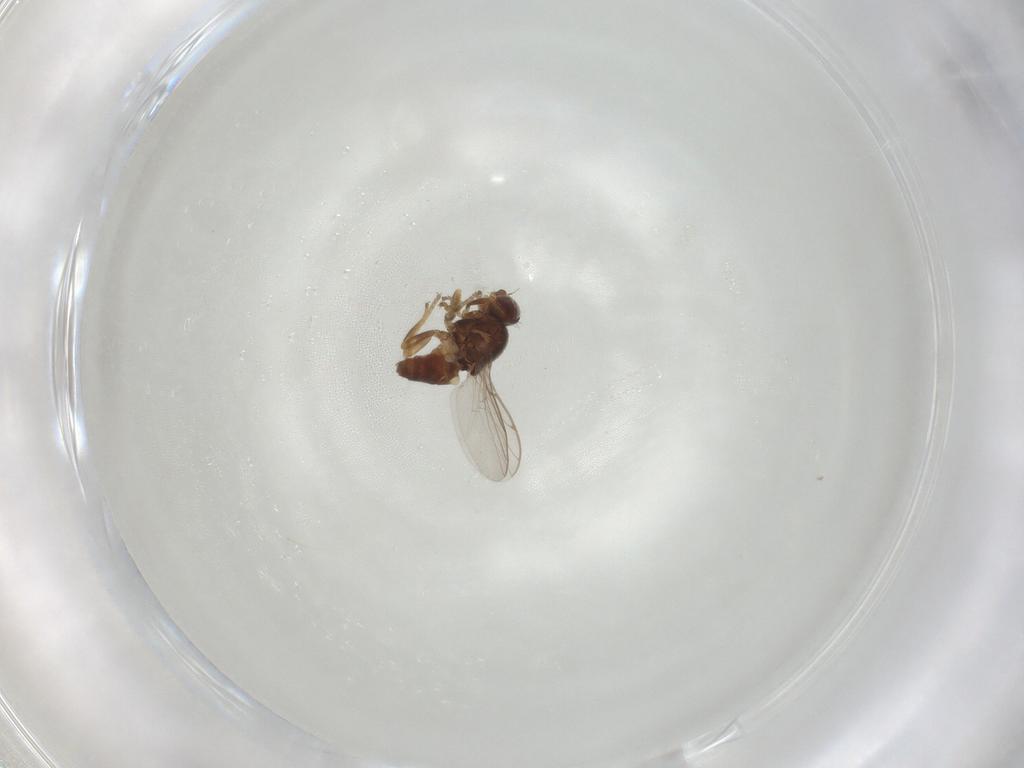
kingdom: Animalia
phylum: Arthropoda
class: Insecta
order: Diptera
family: Chloropidae
